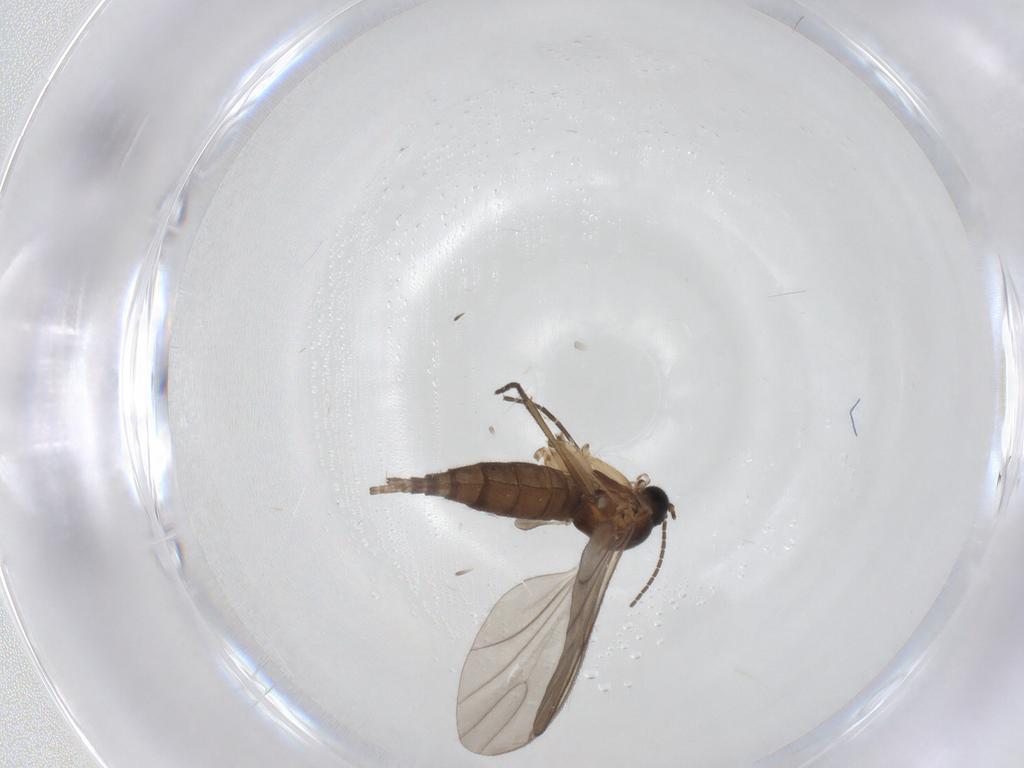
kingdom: Animalia
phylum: Arthropoda
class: Insecta
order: Diptera
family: Sciaridae
